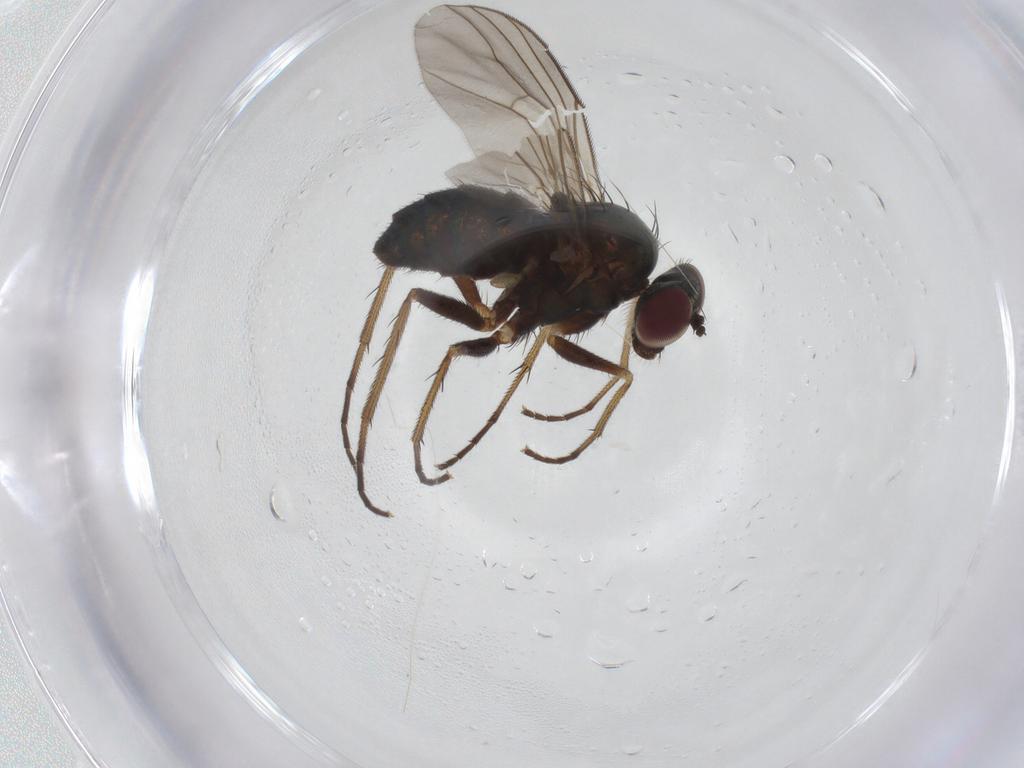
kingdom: Animalia
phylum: Arthropoda
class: Insecta
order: Diptera
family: Dolichopodidae
